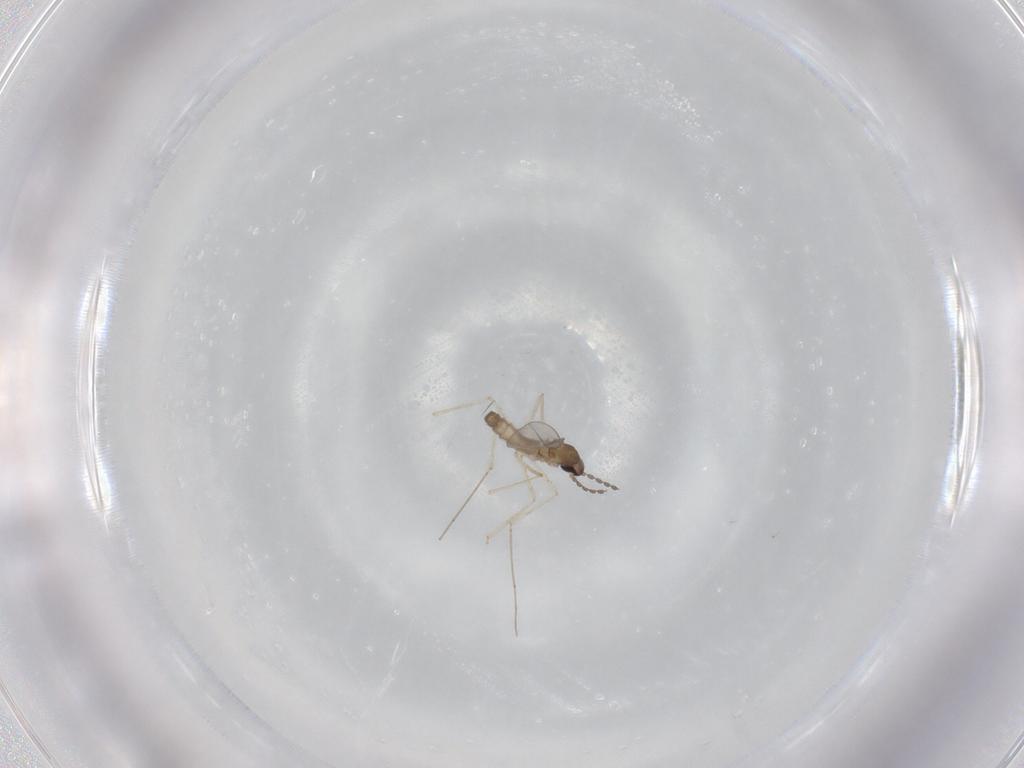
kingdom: Animalia
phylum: Arthropoda
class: Insecta
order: Diptera
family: Cecidomyiidae
